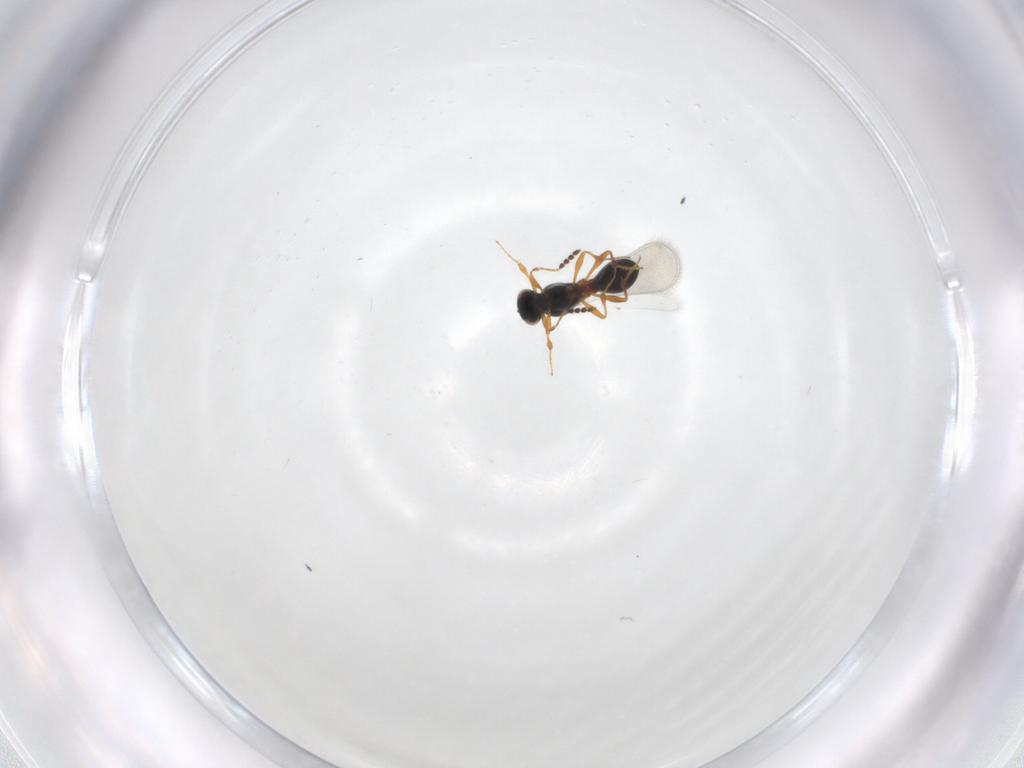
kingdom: Animalia
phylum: Arthropoda
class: Insecta
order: Hymenoptera
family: Platygastridae
